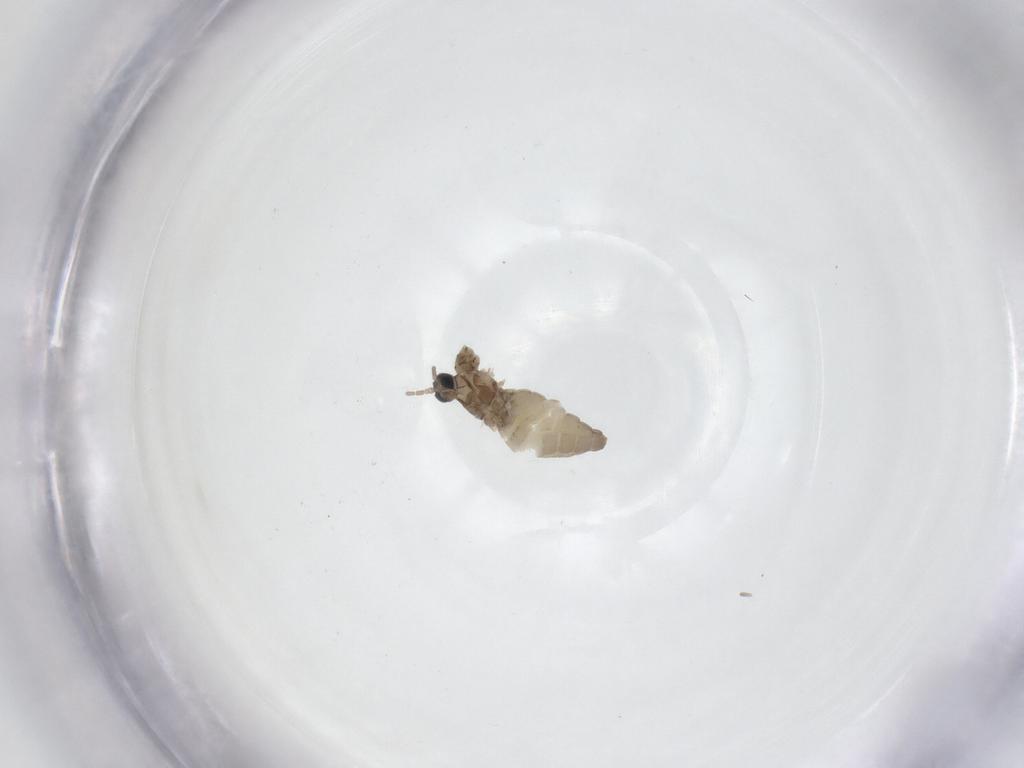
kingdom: Animalia
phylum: Arthropoda
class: Insecta
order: Diptera
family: Cecidomyiidae
